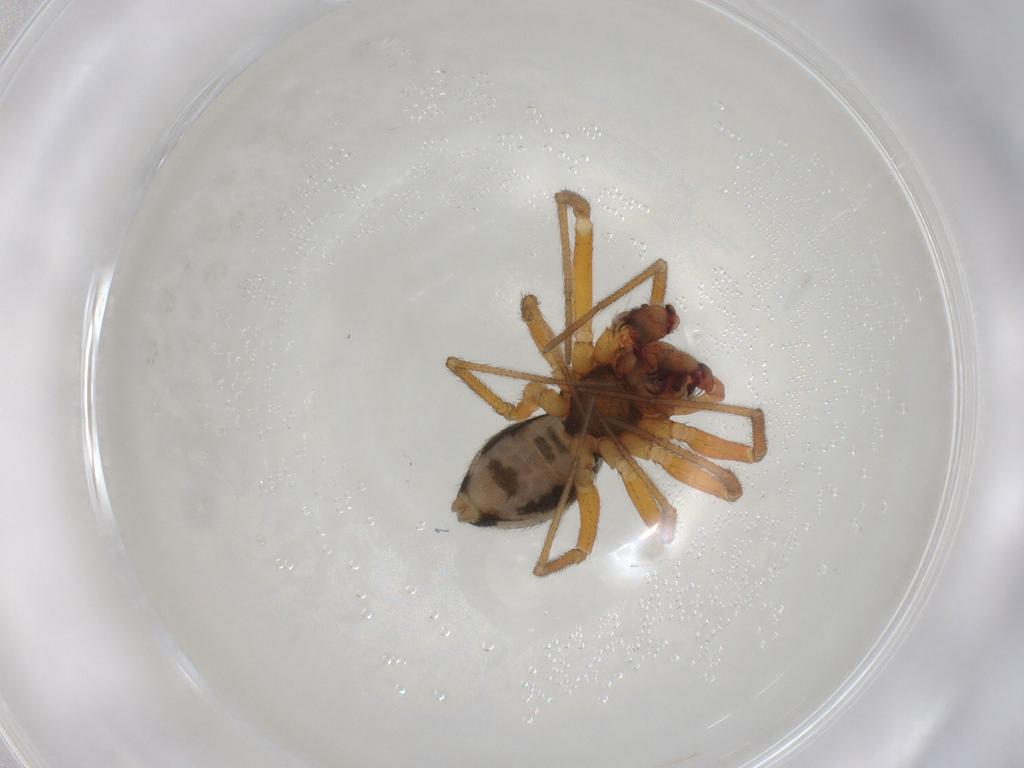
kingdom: Animalia
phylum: Arthropoda
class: Arachnida
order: Araneae
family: Linyphiidae
